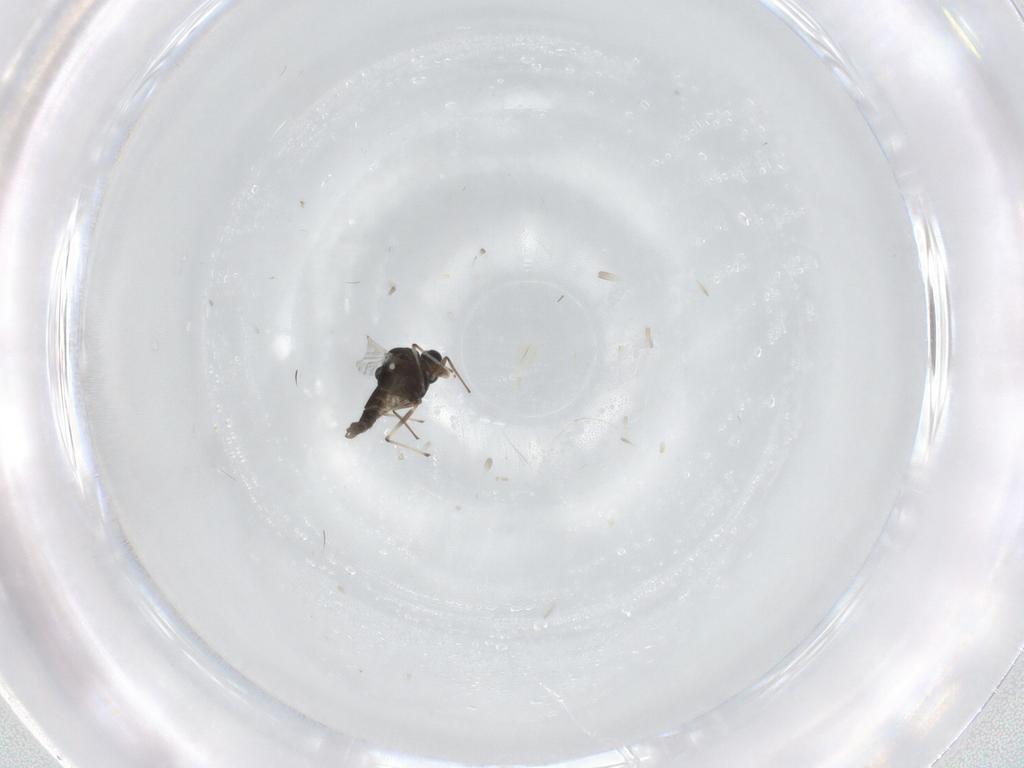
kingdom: Animalia
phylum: Arthropoda
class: Insecta
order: Diptera
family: Chironomidae
